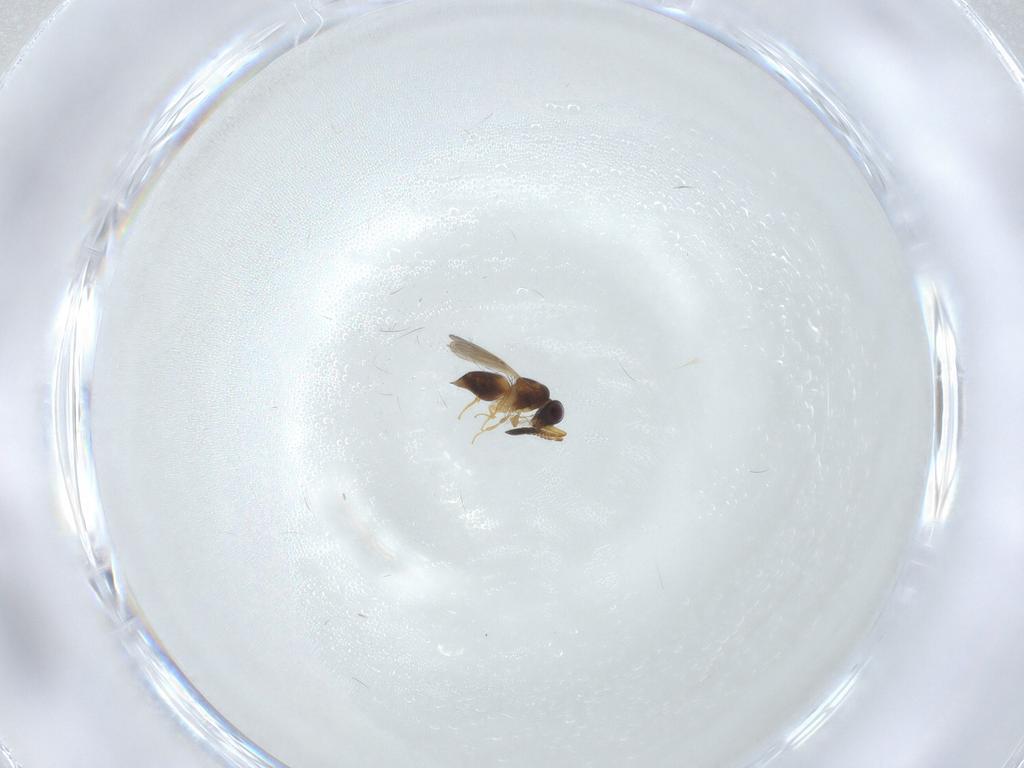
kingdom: Animalia
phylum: Arthropoda
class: Insecta
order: Hymenoptera
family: Ceraphronidae
